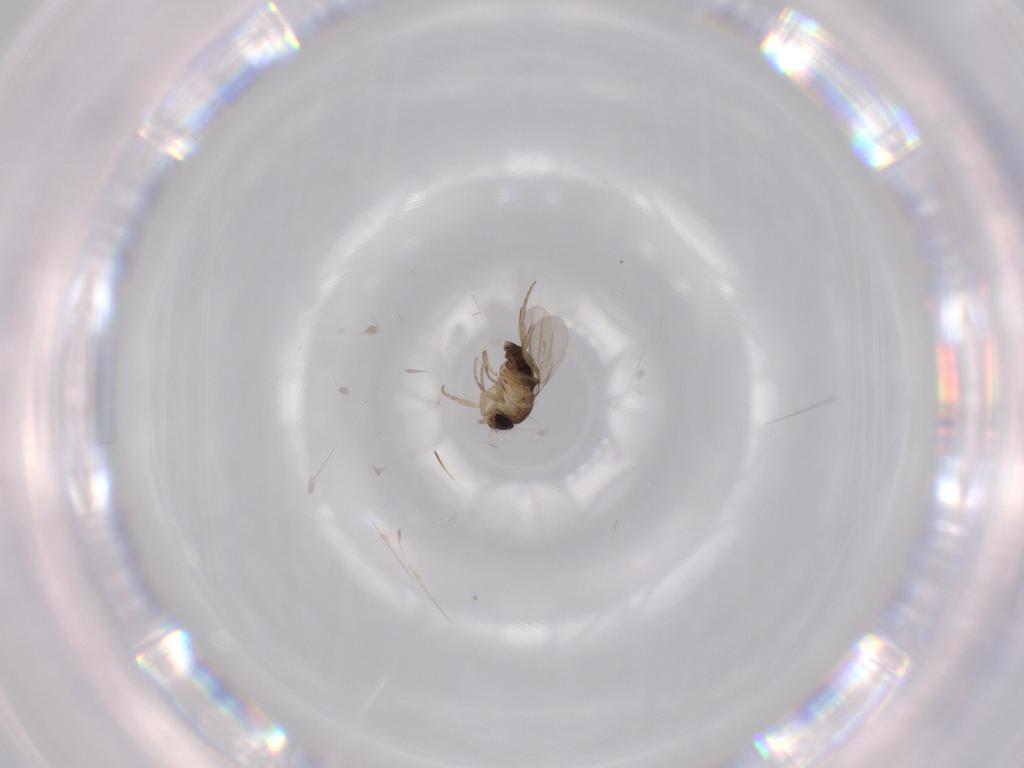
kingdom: Animalia
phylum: Arthropoda
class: Insecta
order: Diptera
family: Phoridae
